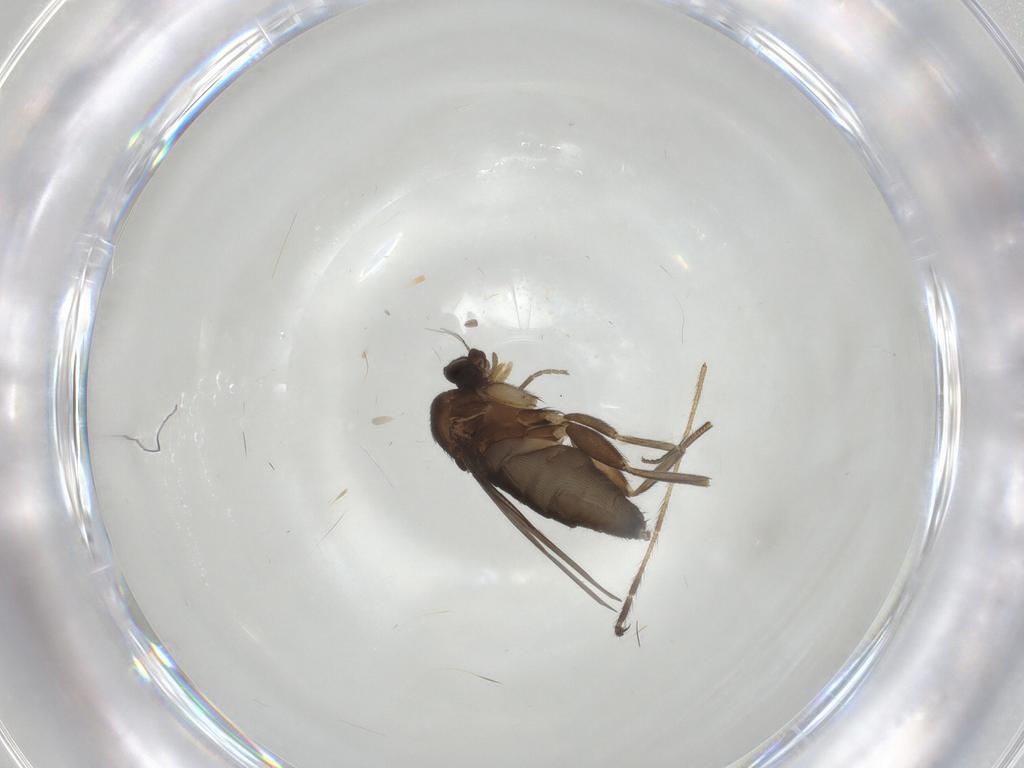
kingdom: Animalia
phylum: Arthropoda
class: Insecta
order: Diptera
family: Phoridae
